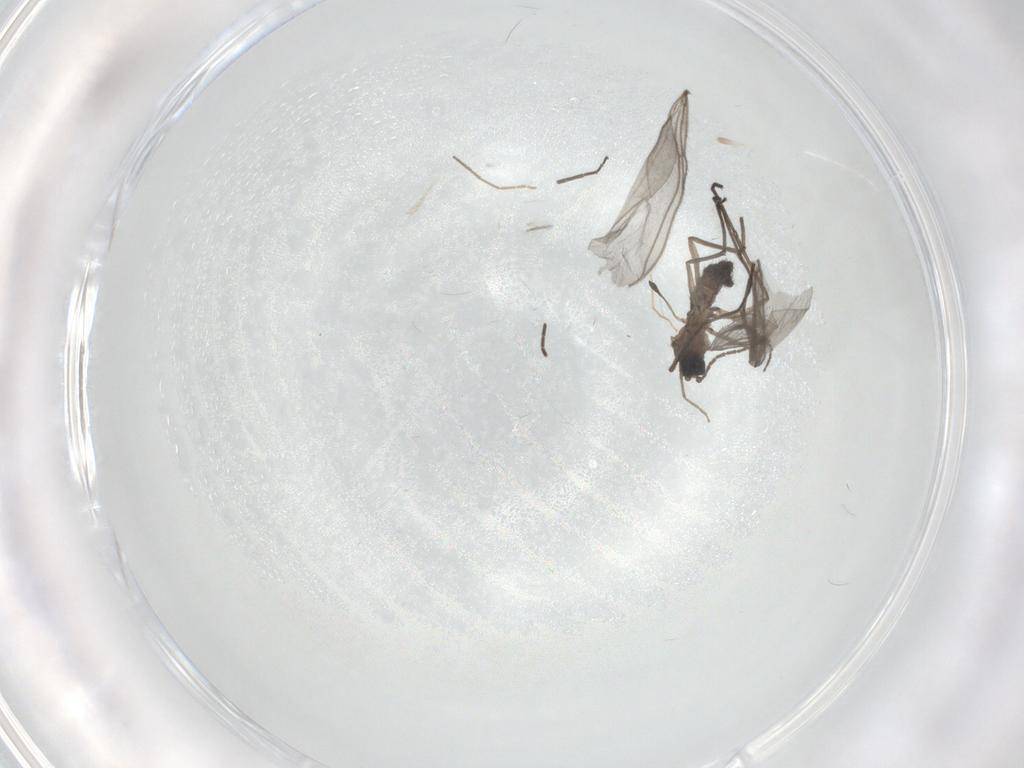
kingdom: Animalia
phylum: Arthropoda
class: Insecta
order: Diptera
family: Sciaridae
